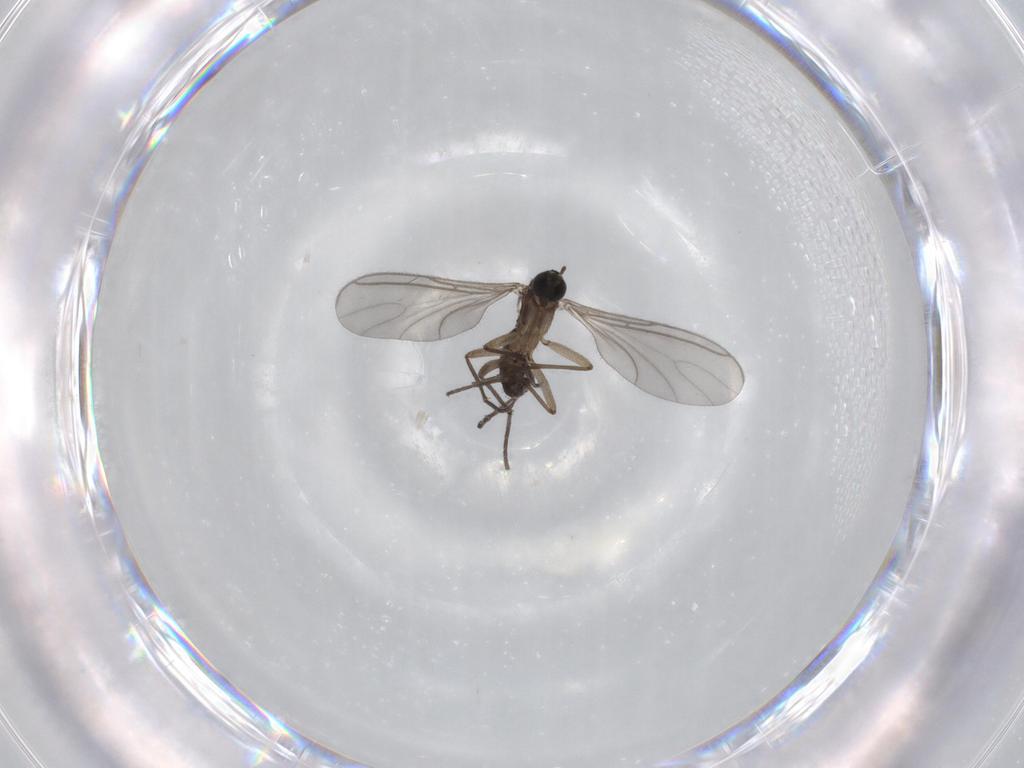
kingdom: Animalia
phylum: Arthropoda
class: Insecta
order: Diptera
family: Sciaridae
